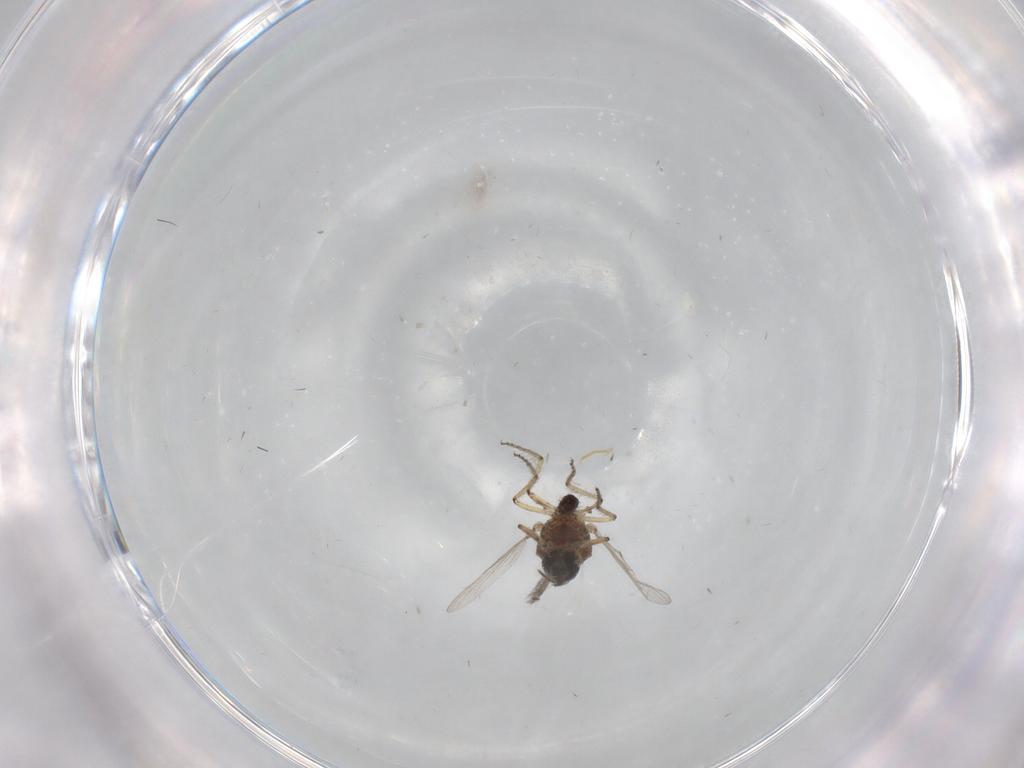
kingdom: Animalia
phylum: Arthropoda
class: Insecta
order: Diptera
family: Ceratopogonidae
